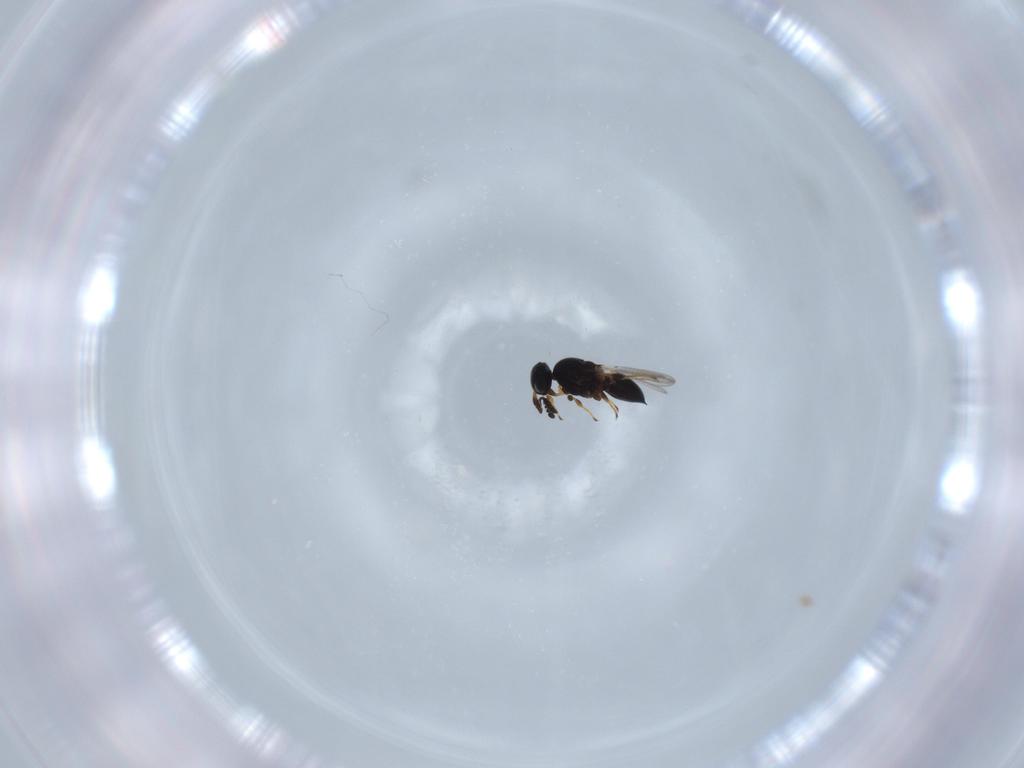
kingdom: Animalia
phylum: Arthropoda
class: Insecta
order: Hymenoptera
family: Platygastridae
